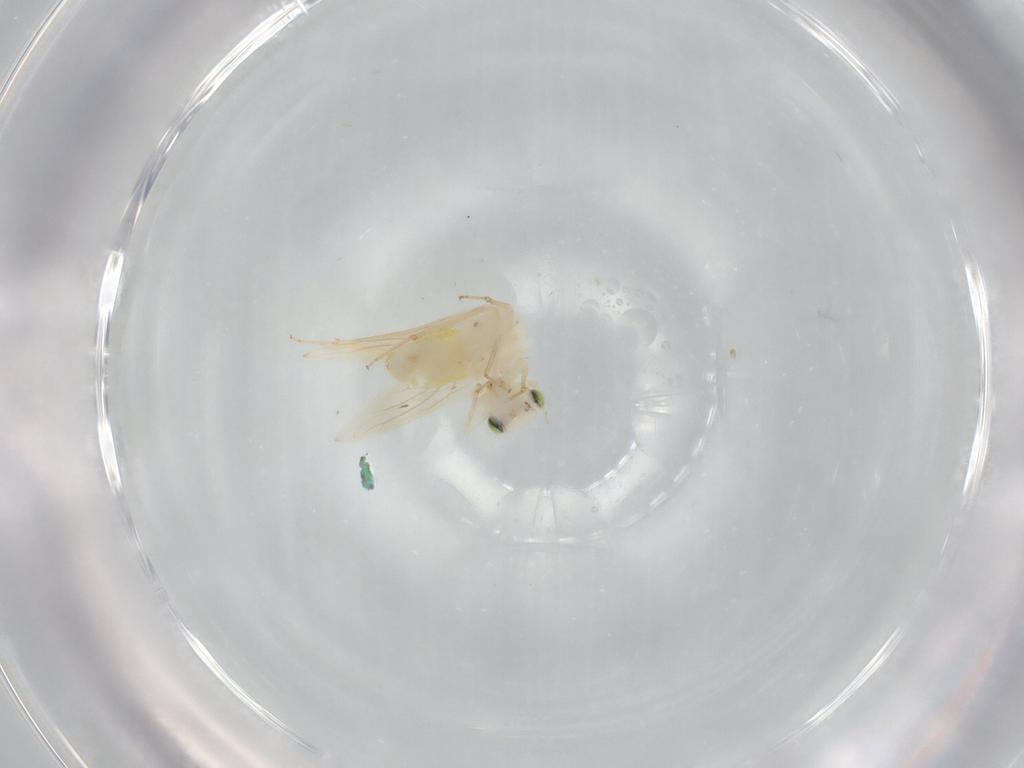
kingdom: Animalia
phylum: Arthropoda
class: Insecta
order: Psocodea
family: Lepidopsocidae
